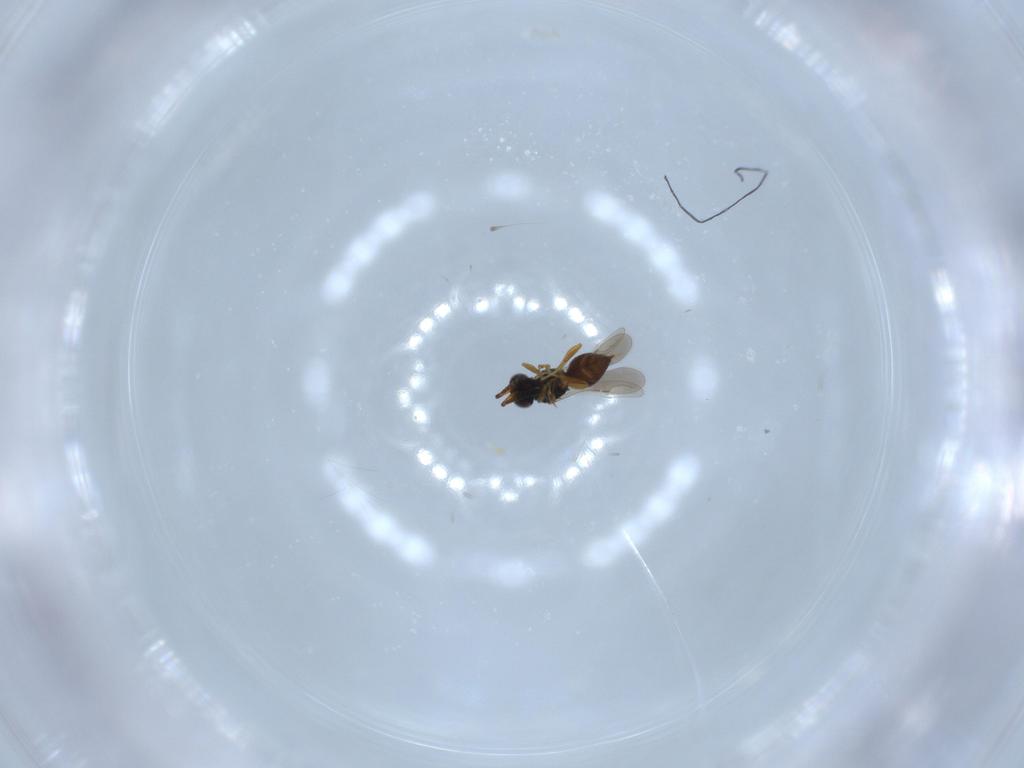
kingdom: Animalia
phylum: Arthropoda
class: Insecta
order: Hymenoptera
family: Ceraphronidae
